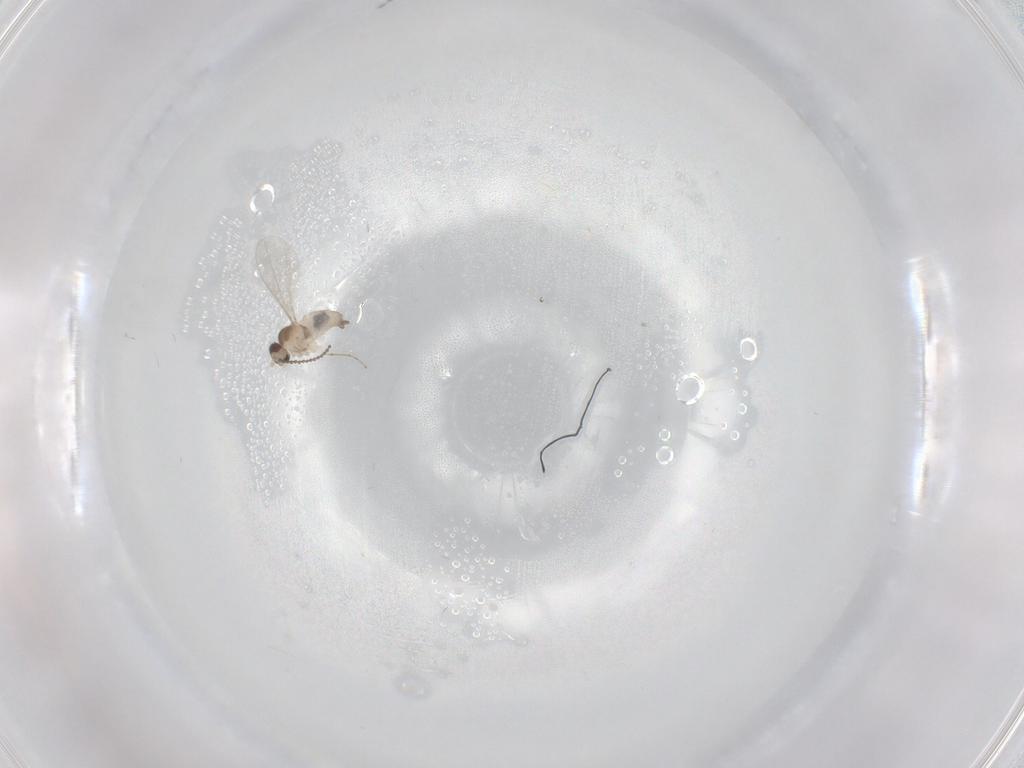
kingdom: Animalia
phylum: Arthropoda
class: Insecta
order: Diptera
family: Cecidomyiidae
